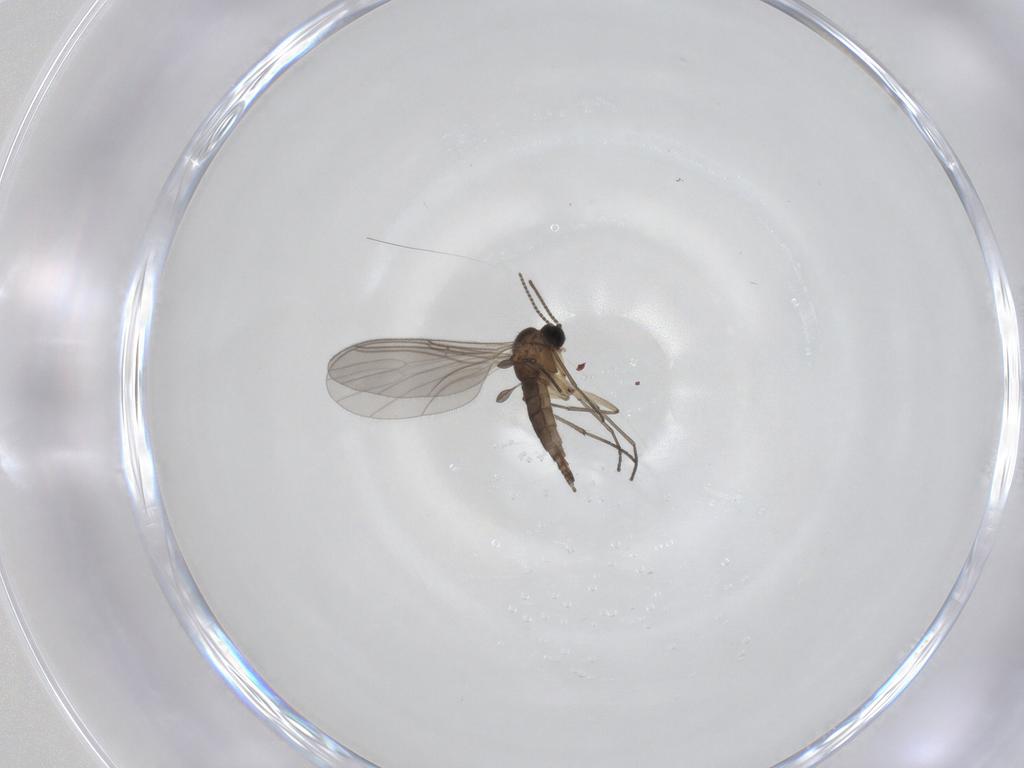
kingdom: Animalia
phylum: Arthropoda
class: Insecta
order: Diptera
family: Sciaridae
